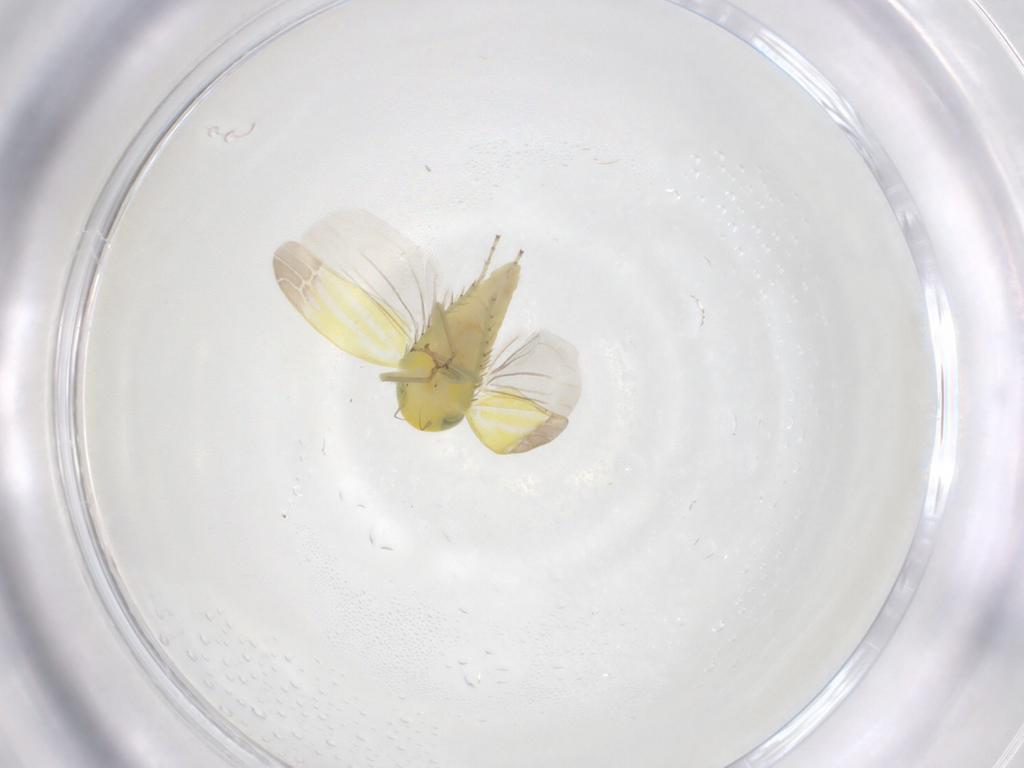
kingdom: Animalia
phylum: Arthropoda
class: Insecta
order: Hemiptera
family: Cicadellidae
